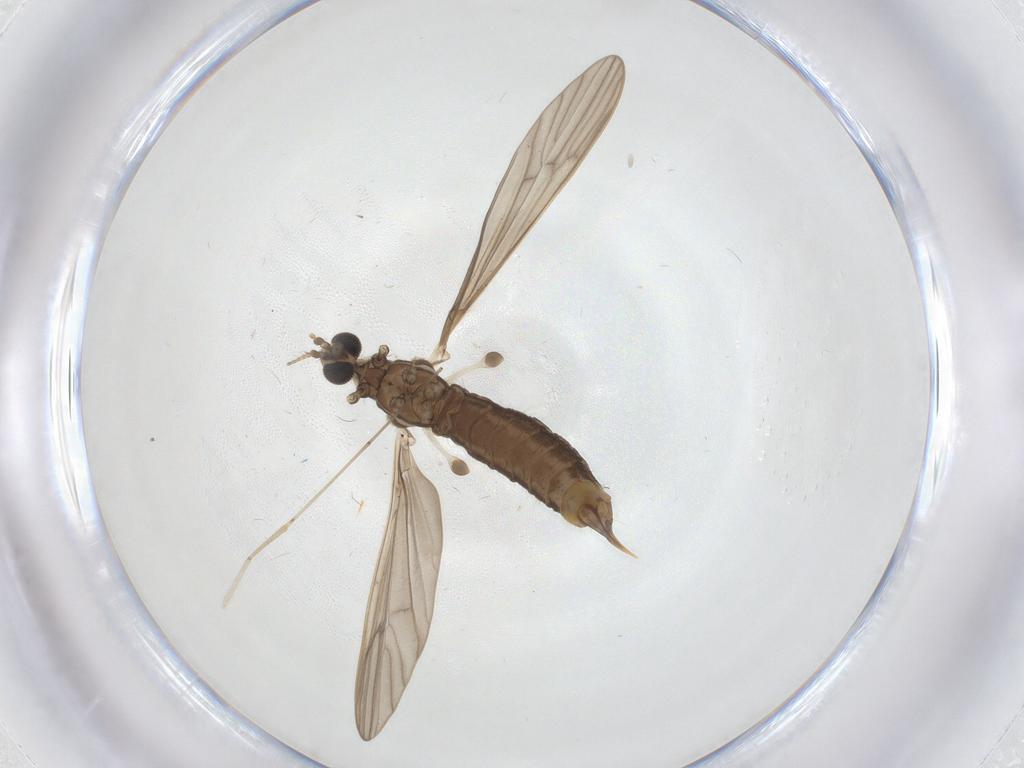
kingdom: Animalia
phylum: Arthropoda
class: Insecta
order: Diptera
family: Limoniidae
